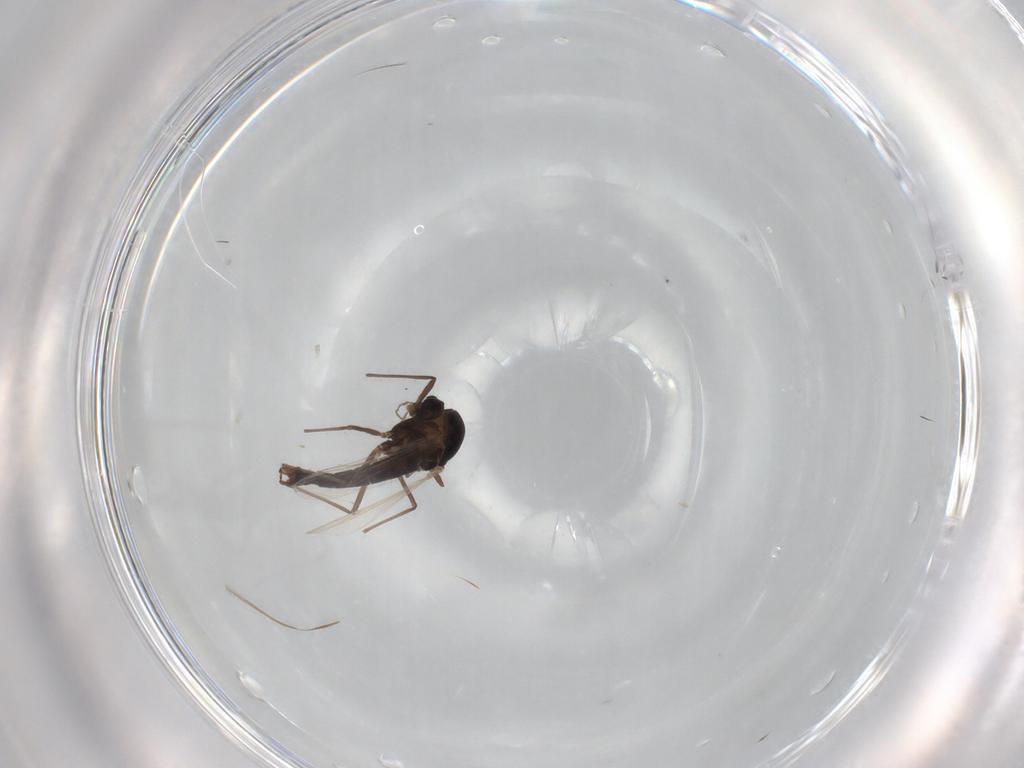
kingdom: Animalia
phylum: Arthropoda
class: Insecta
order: Diptera
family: Chironomidae
